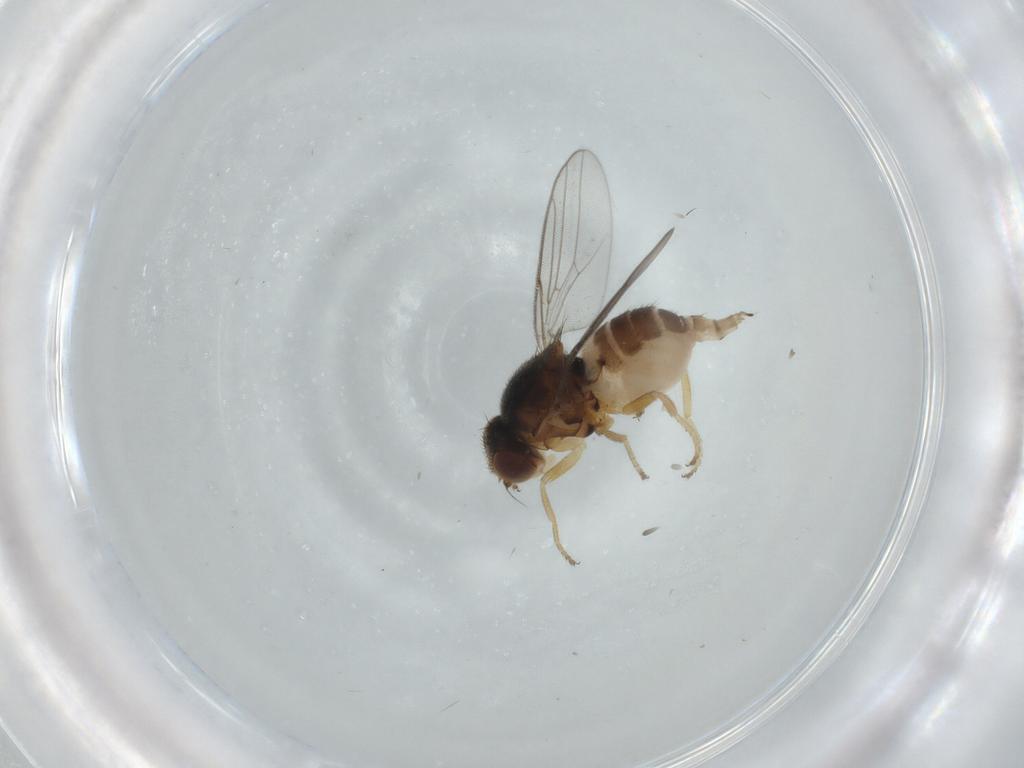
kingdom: Animalia
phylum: Arthropoda
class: Insecta
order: Diptera
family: Chloropidae
